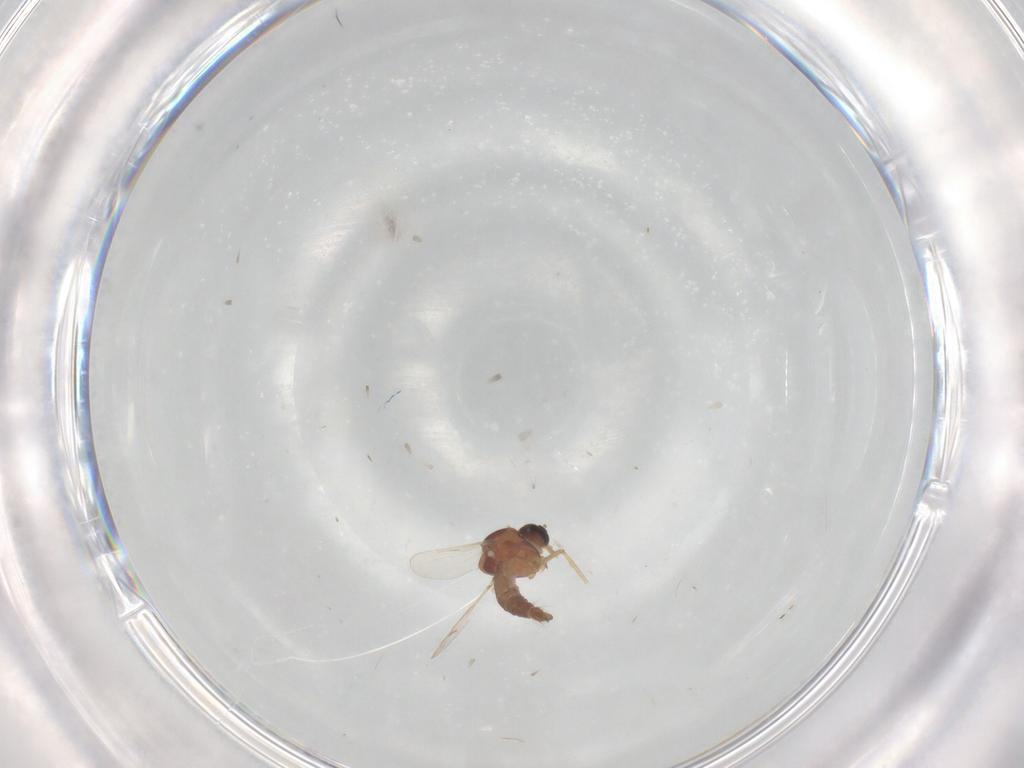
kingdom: Animalia
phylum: Arthropoda
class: Insecta
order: Diptera
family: Ceratopogonidae
